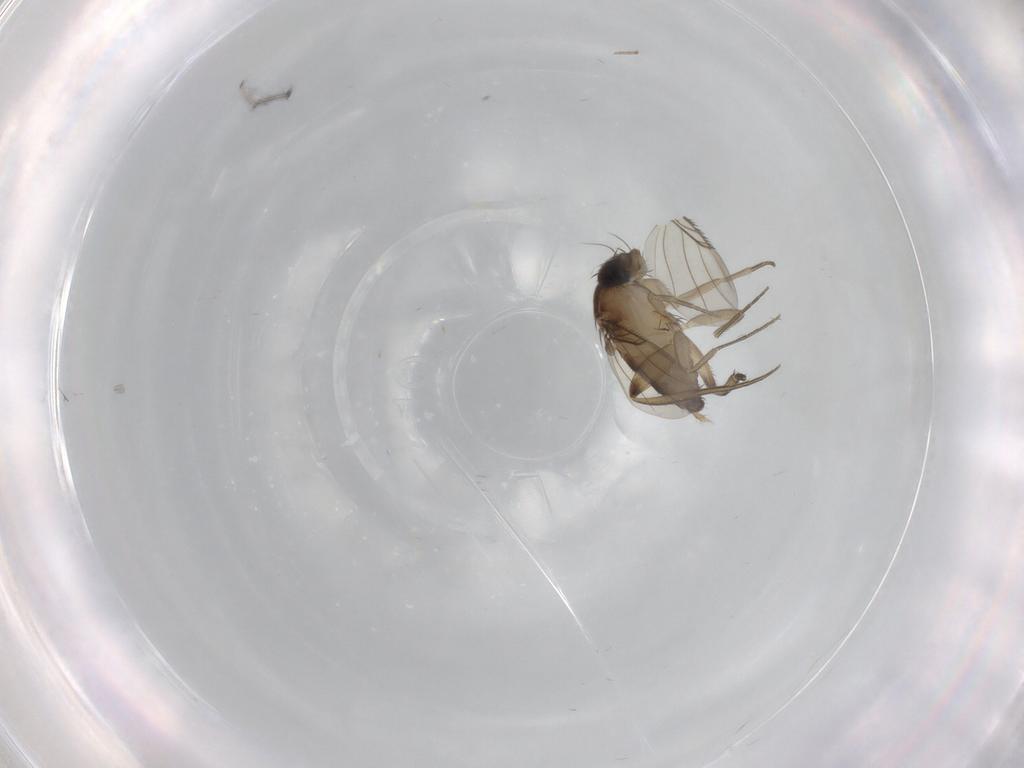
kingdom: Animalia
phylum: Arthropoda
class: Insecta
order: Diptera
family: Phoridae
